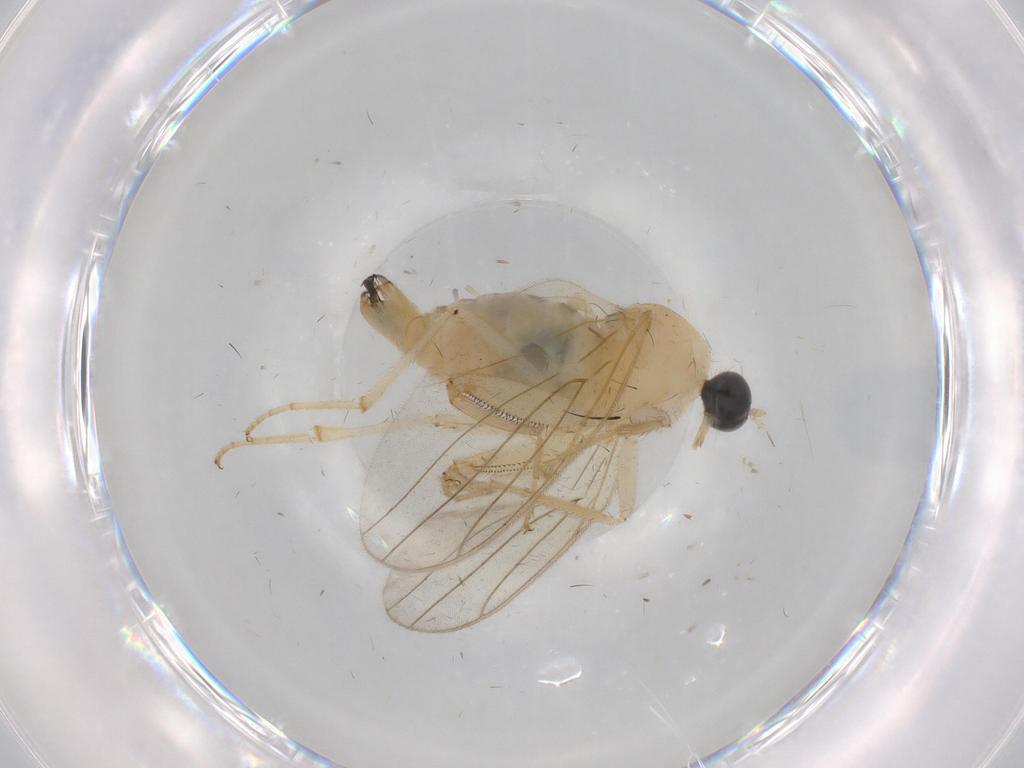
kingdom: Animalia
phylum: Arthropoda
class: Insecta
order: Diptera
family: Hybotidae
